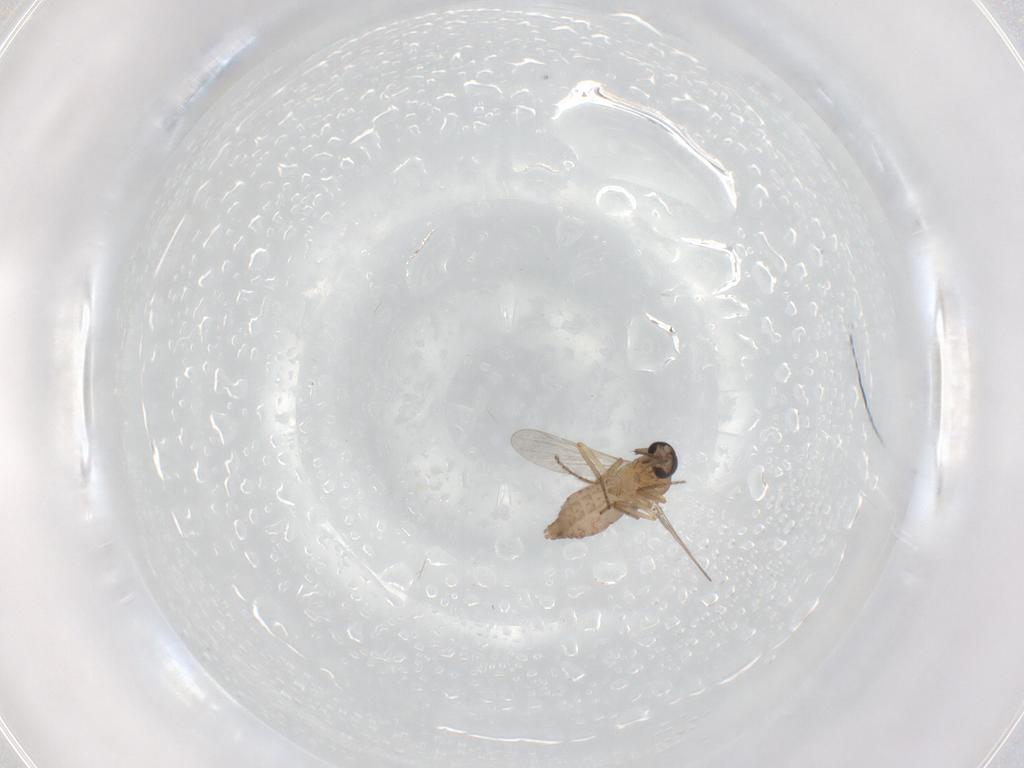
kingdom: Animalia
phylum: Arthropoda
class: Insecta
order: Diptera
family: Ceratopogonidae
